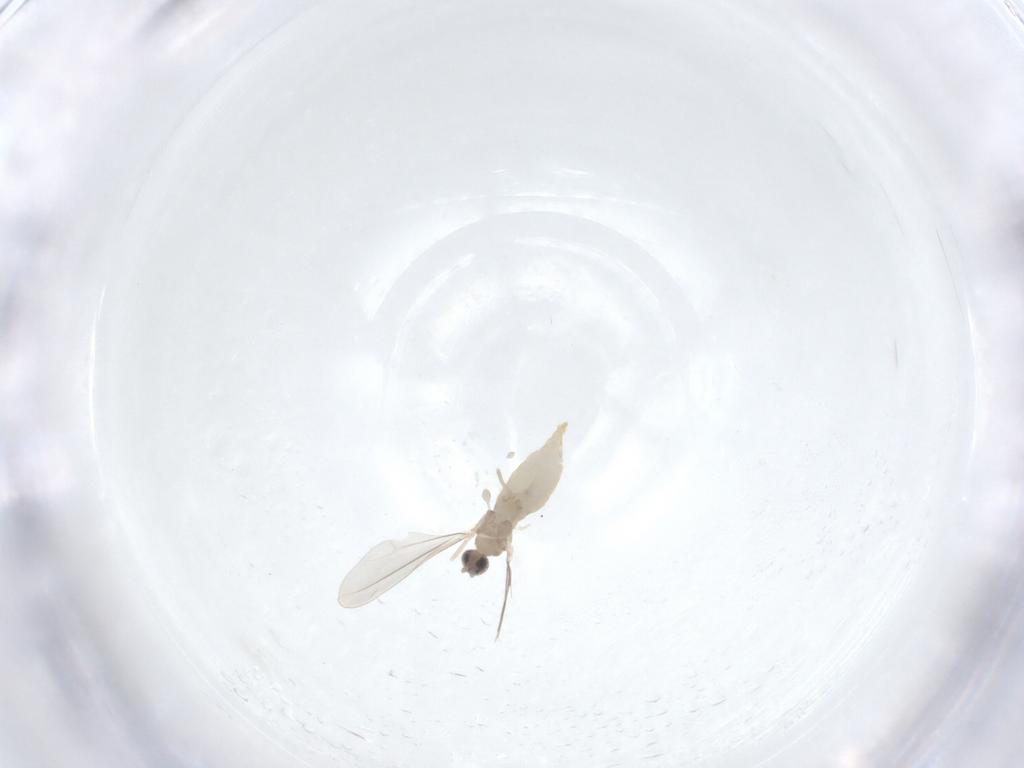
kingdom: Animalia
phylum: Arthropoda
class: Insecta
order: Diptera
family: Cecidomyiidae
